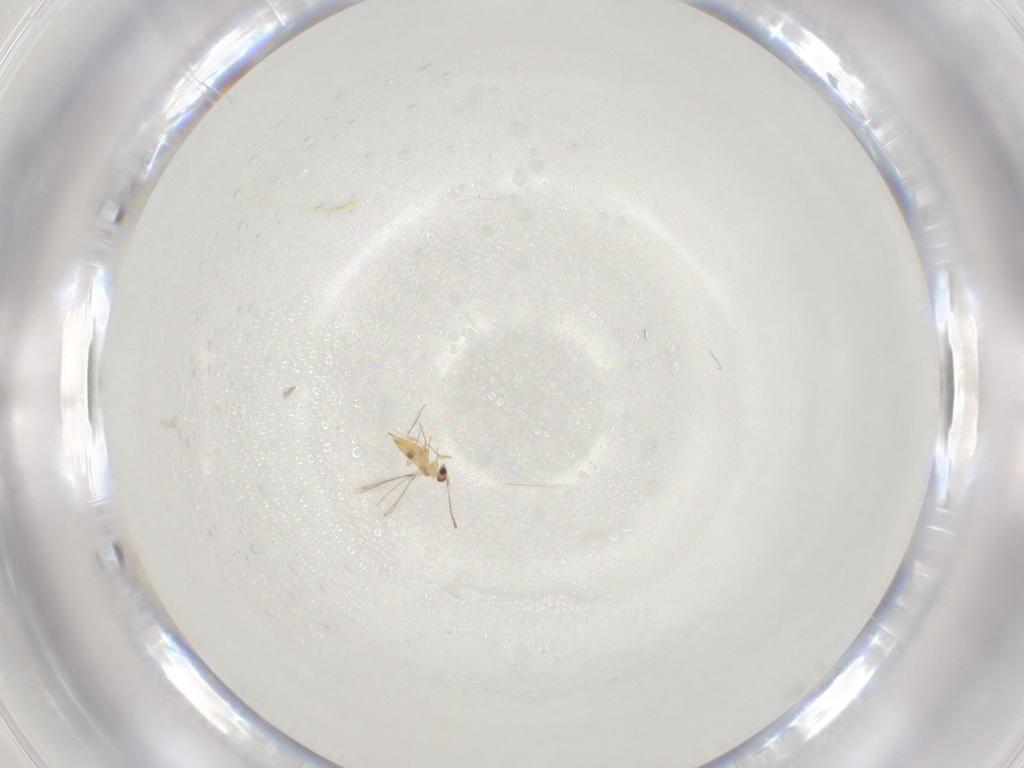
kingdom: Animalia
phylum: Arthropoda
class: Insecta
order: Hymenoptera
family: Mymaridae
